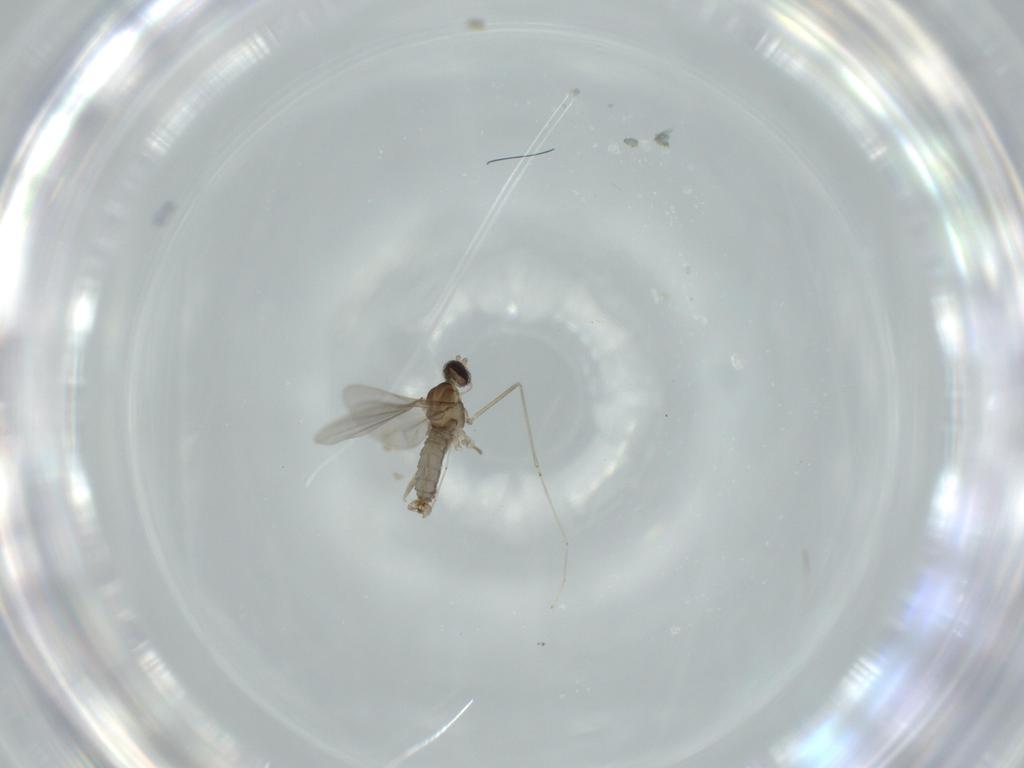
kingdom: Animalia
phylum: Arthropoda
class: Insecta
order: Diptera
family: Cecidomyiidae
